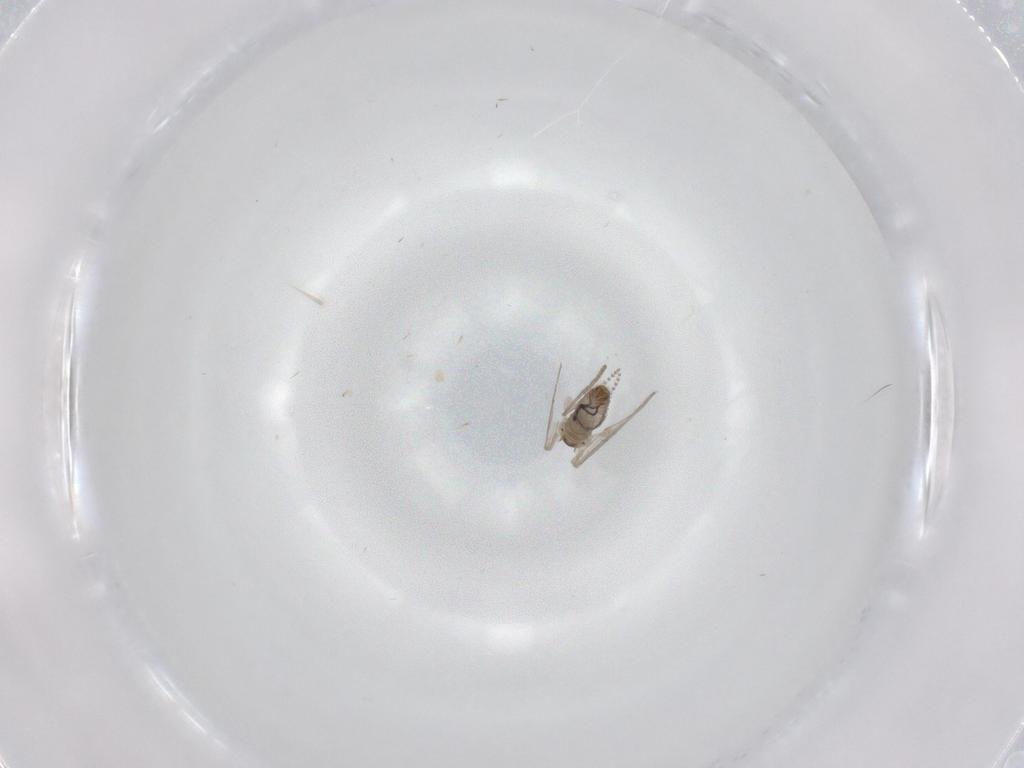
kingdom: Animalia
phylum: Arthropoda
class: Insecta
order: Diptera
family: Psychodidae
